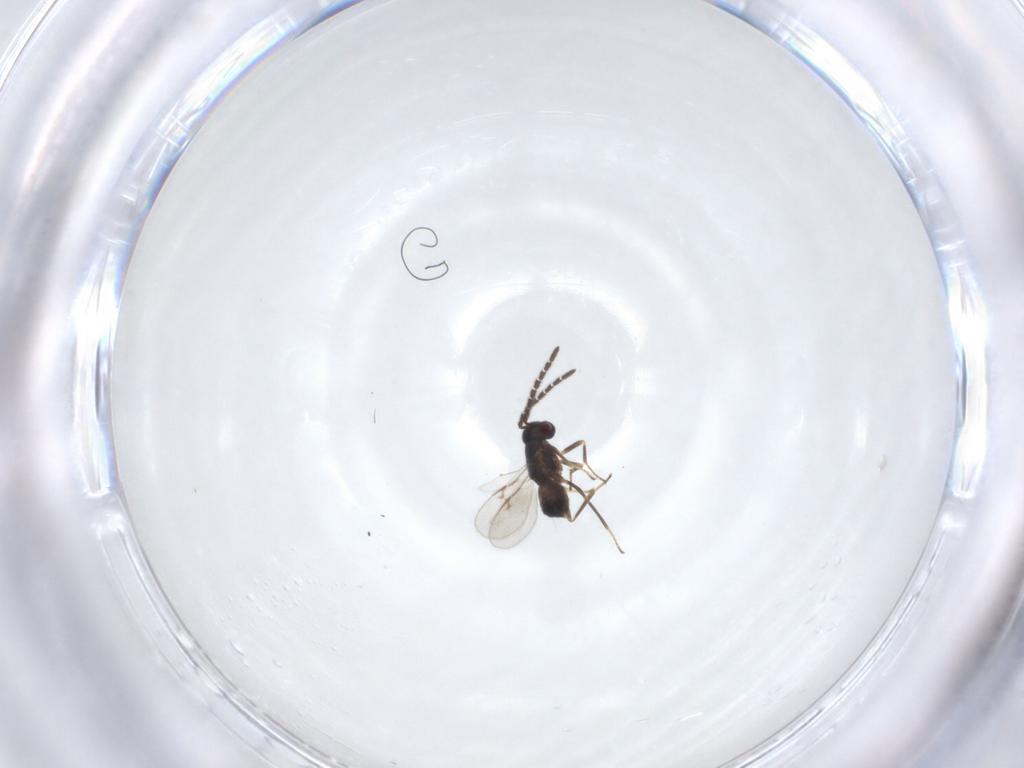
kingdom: Animalia
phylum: Arthropoda
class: Insecta
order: Hymenoptera
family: Encyrtidae
